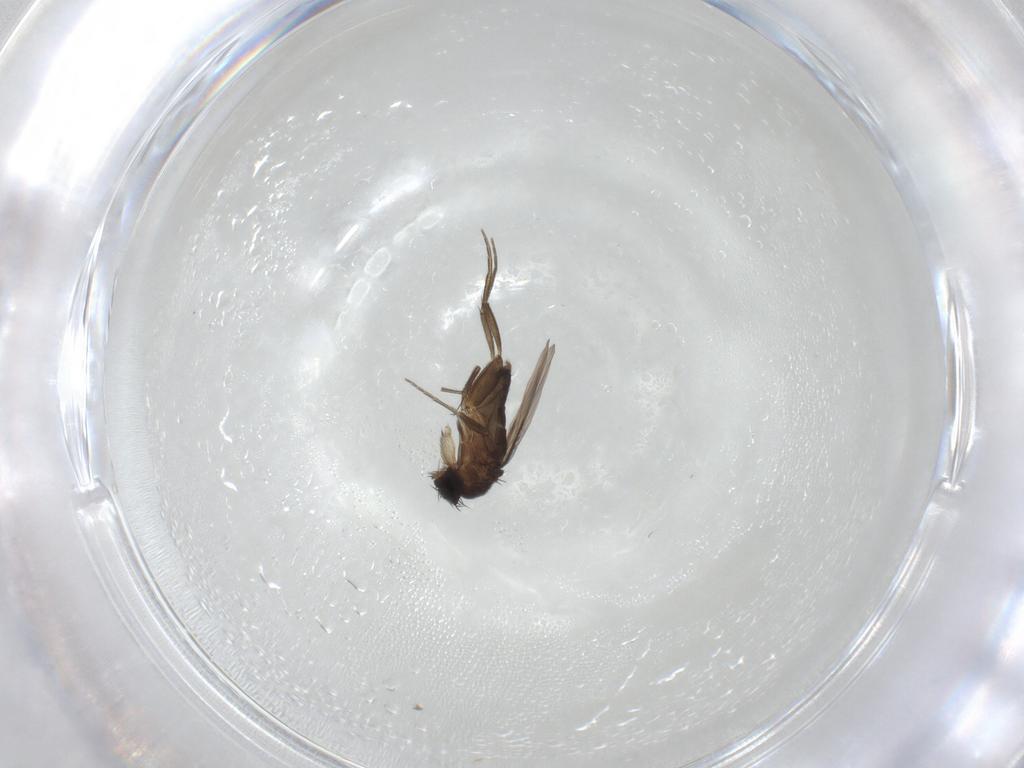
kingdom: Animalia
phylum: Arthropoda
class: Insecta
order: Diptera
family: Phoridae
